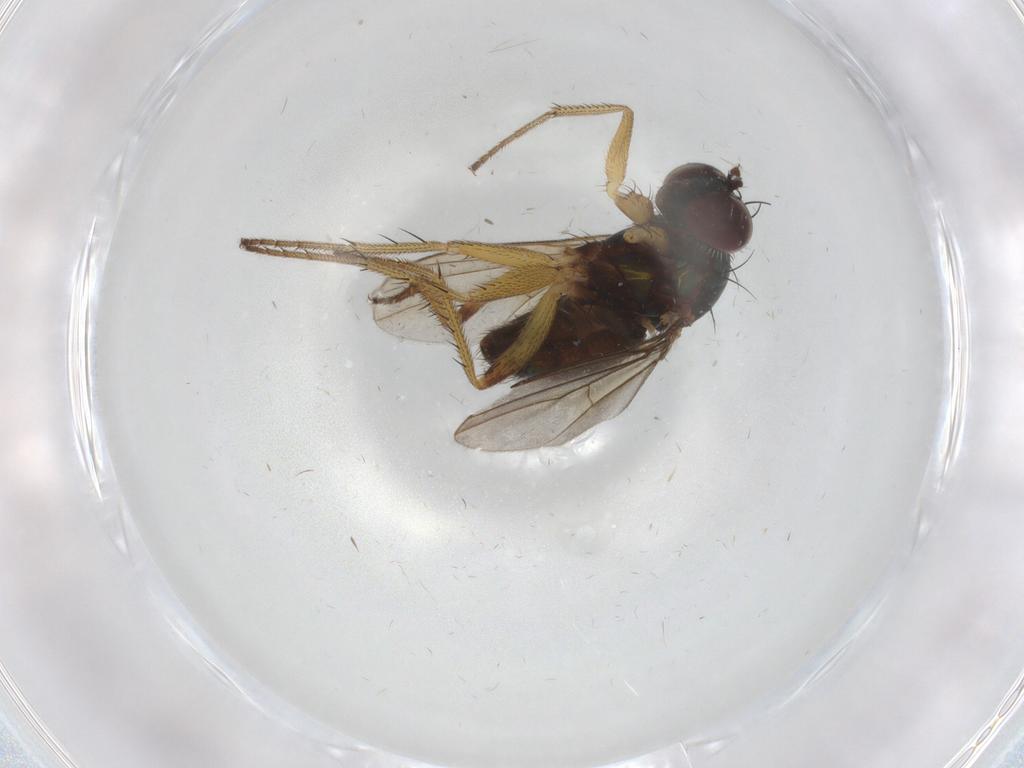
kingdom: Animalia
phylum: Arthropoda
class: Insecta
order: Diptera
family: Dolichopodidae
